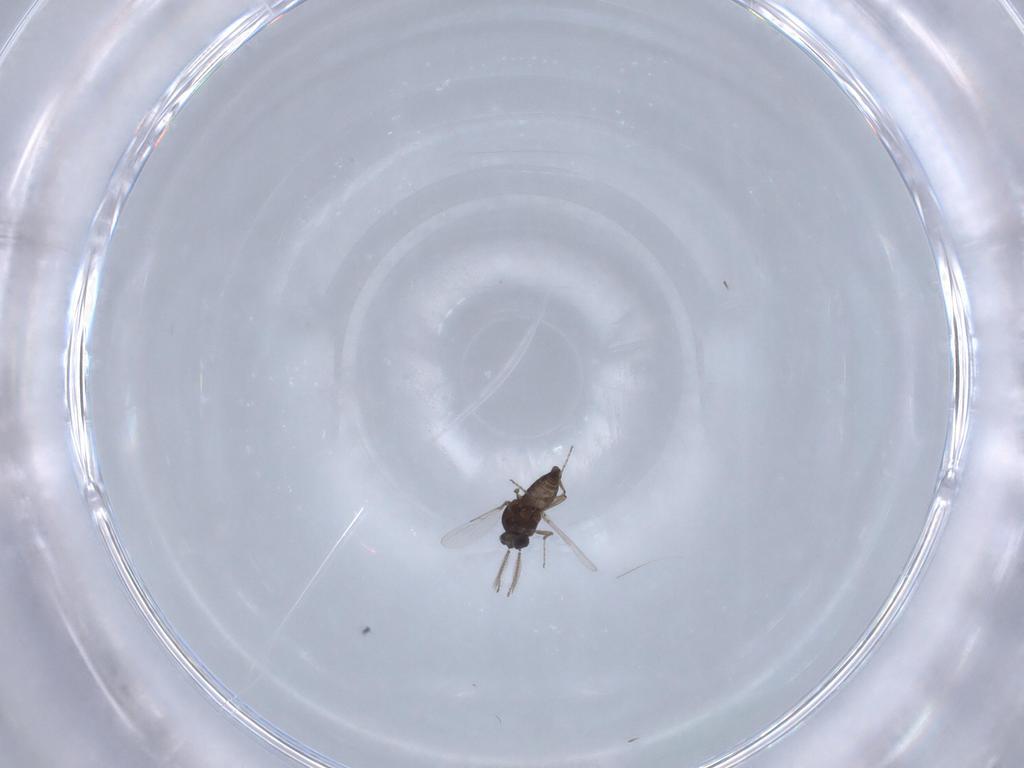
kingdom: Animalia
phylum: Arthropoda
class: Insecta
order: Diptera
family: Ceratopogonidae
